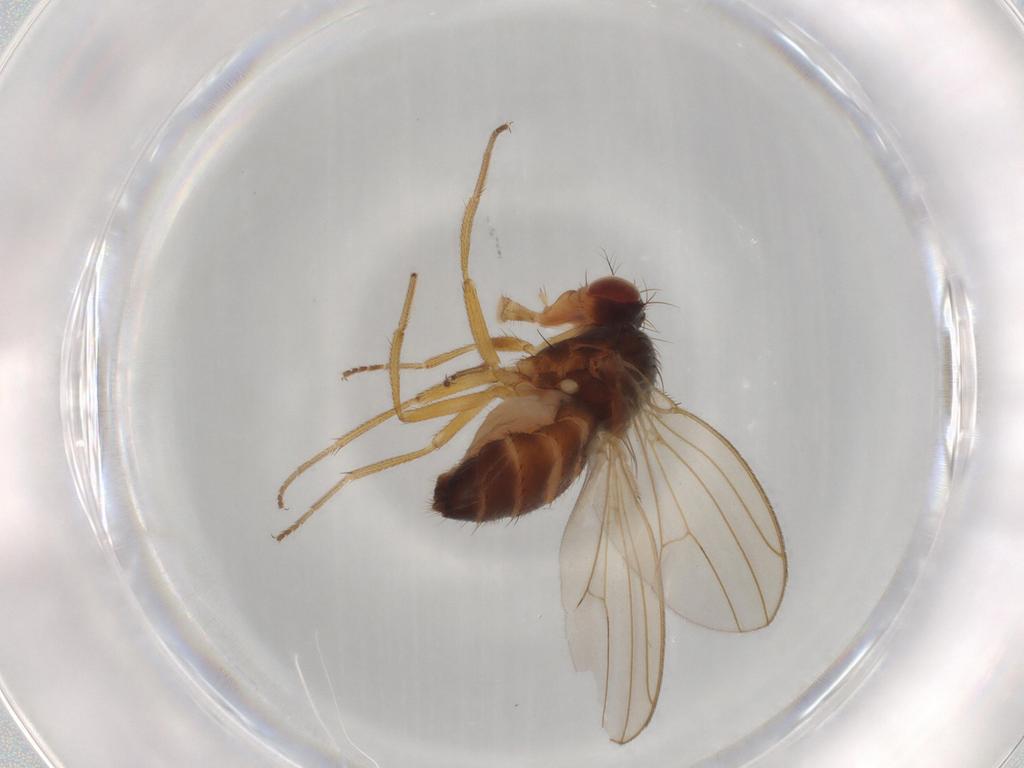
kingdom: Animalia
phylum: Arthropoda
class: Insecta
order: Diptera
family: Drosophilidae
